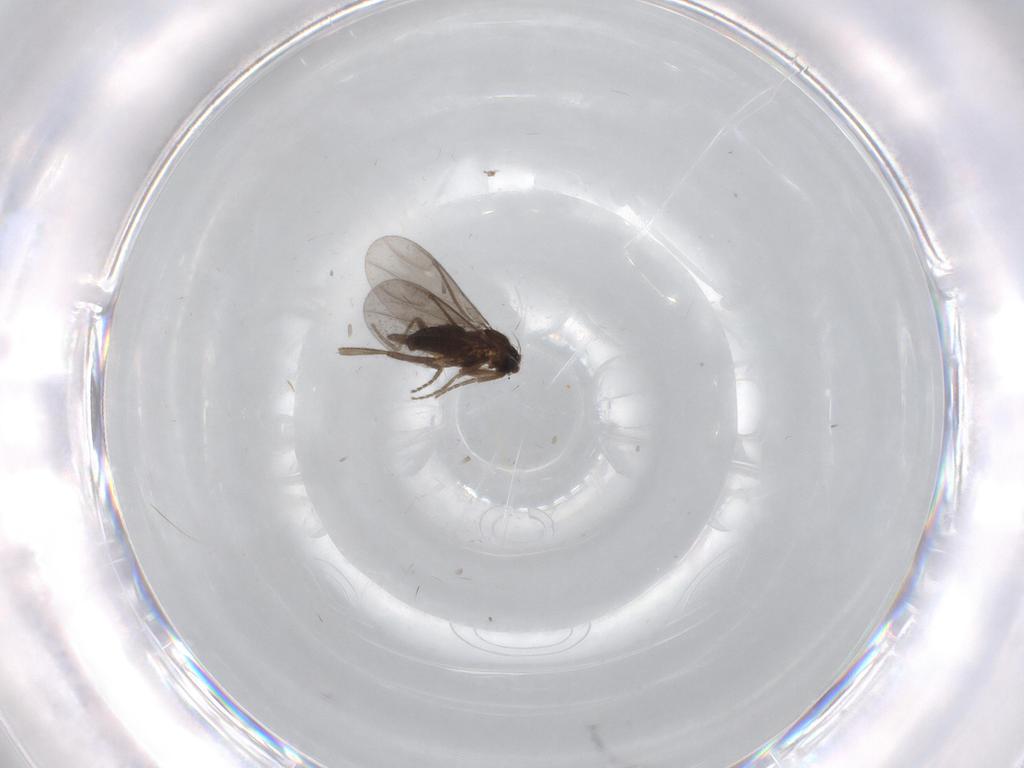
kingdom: Animalia
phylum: Arthropoda
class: Insecta
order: Diptera
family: Phoridae
